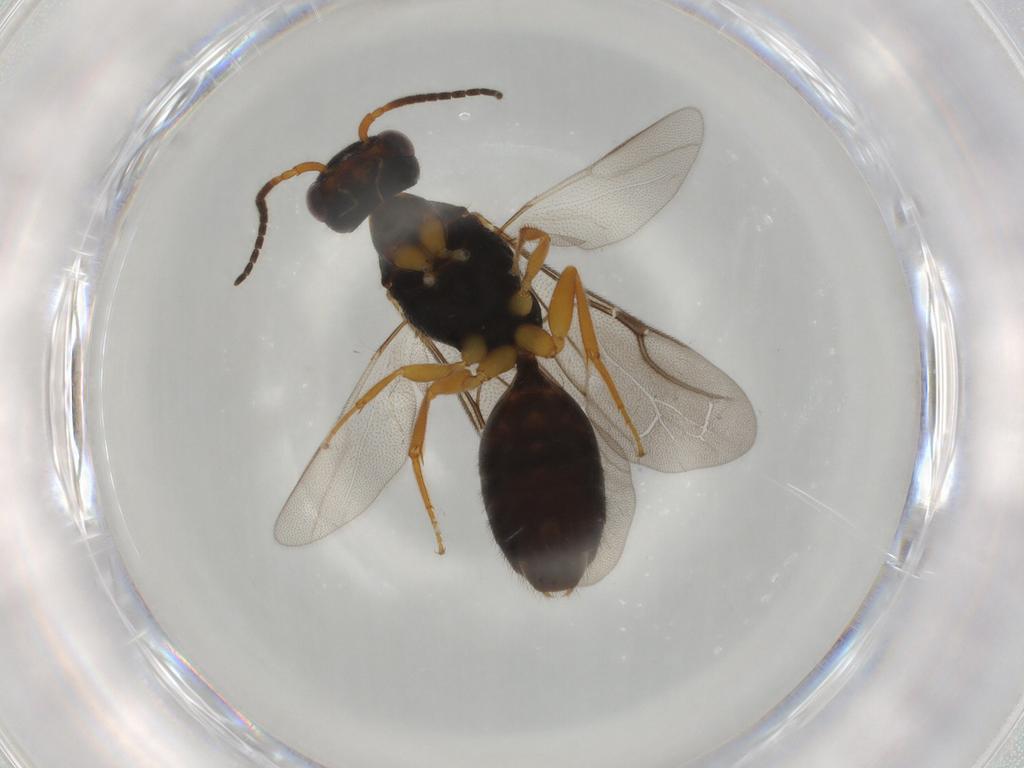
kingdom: Animalia
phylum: Arthropoda
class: Insecta
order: Hymenoptera
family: Bethylidae
